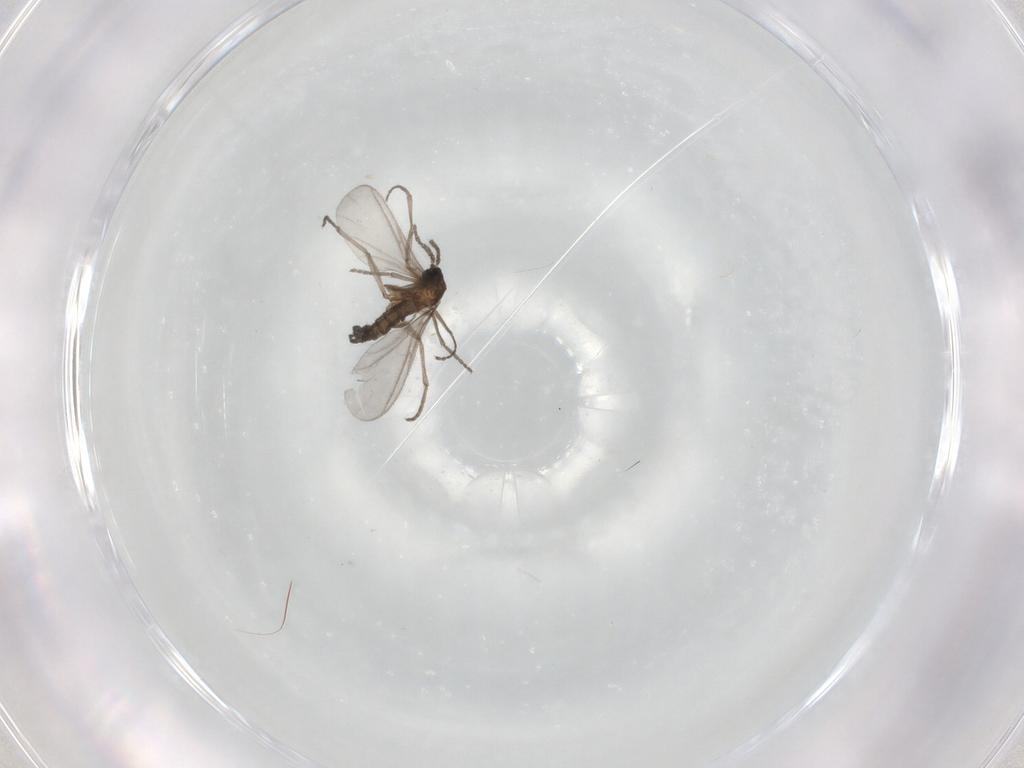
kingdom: Animalia
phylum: Arthropoda
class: Insecta
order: Diptera
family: Sciaridae
